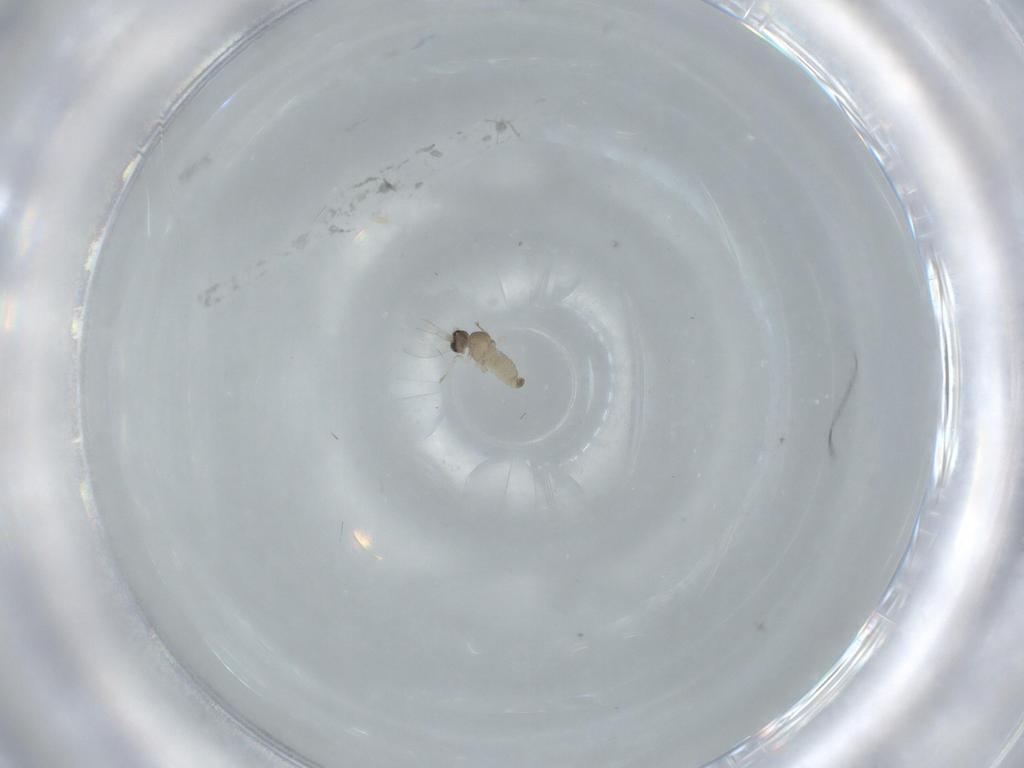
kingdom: Animalia
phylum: Arthropoda
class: Insecta
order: Diptera
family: Cecidomyiidae
